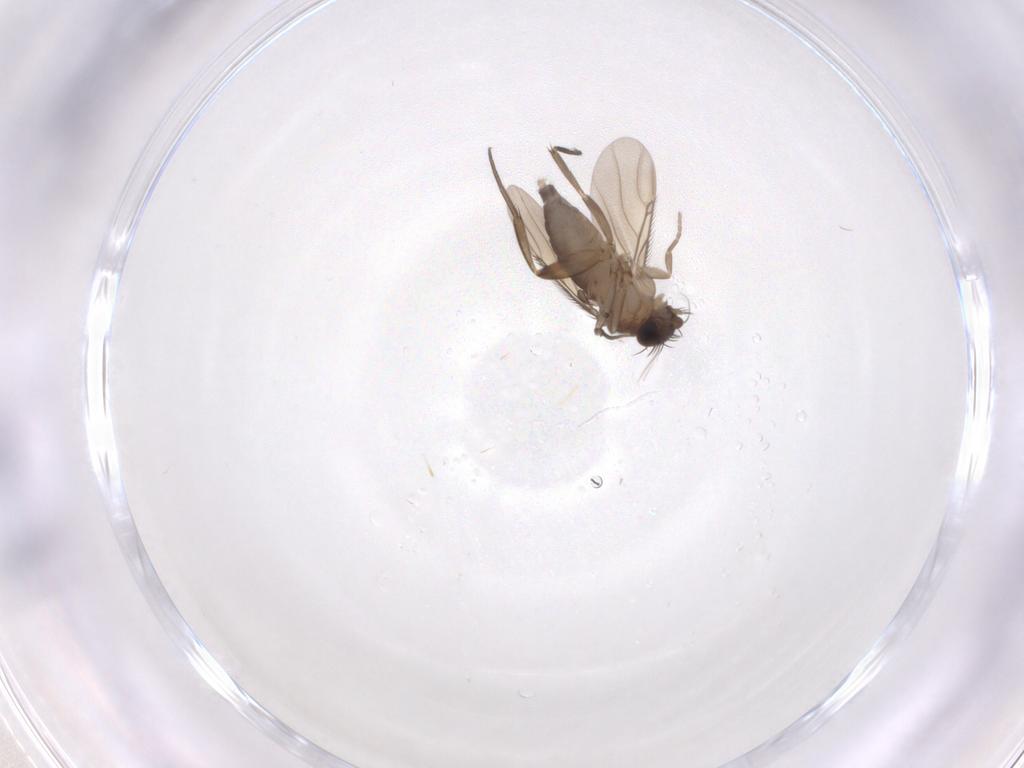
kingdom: Animalia
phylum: Arthropoda
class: Insecta
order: Diptera
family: Phoridae
